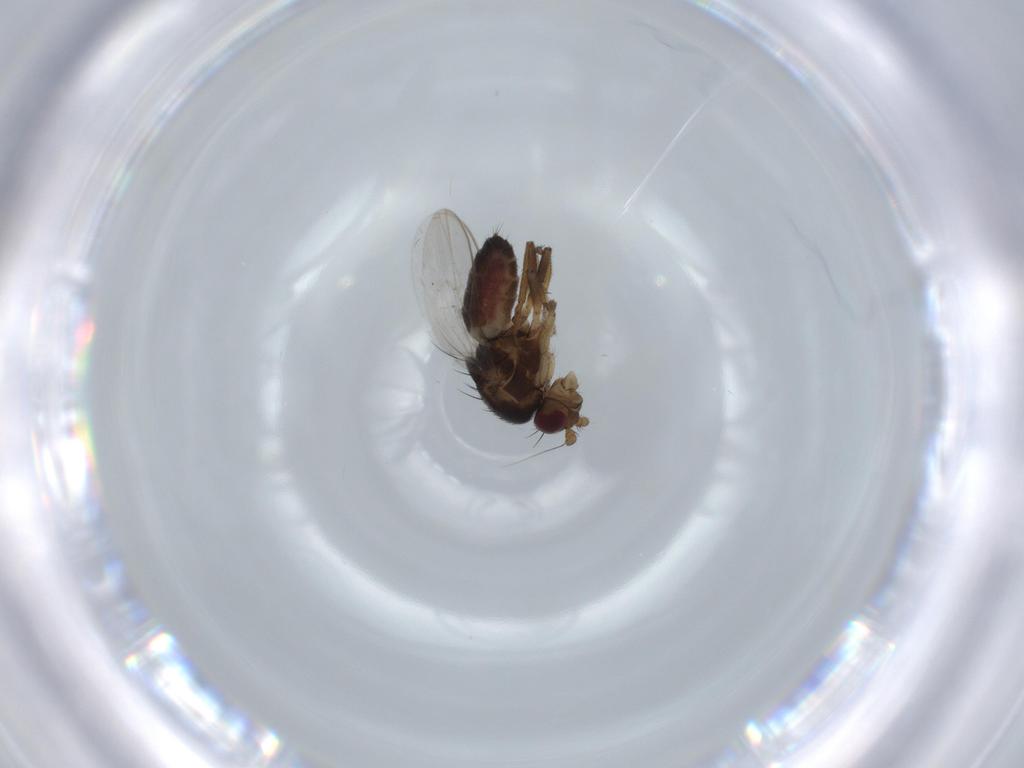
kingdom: Animalia
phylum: Arthropoda
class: Insecta
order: Diptera
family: Sphaeroceridae
